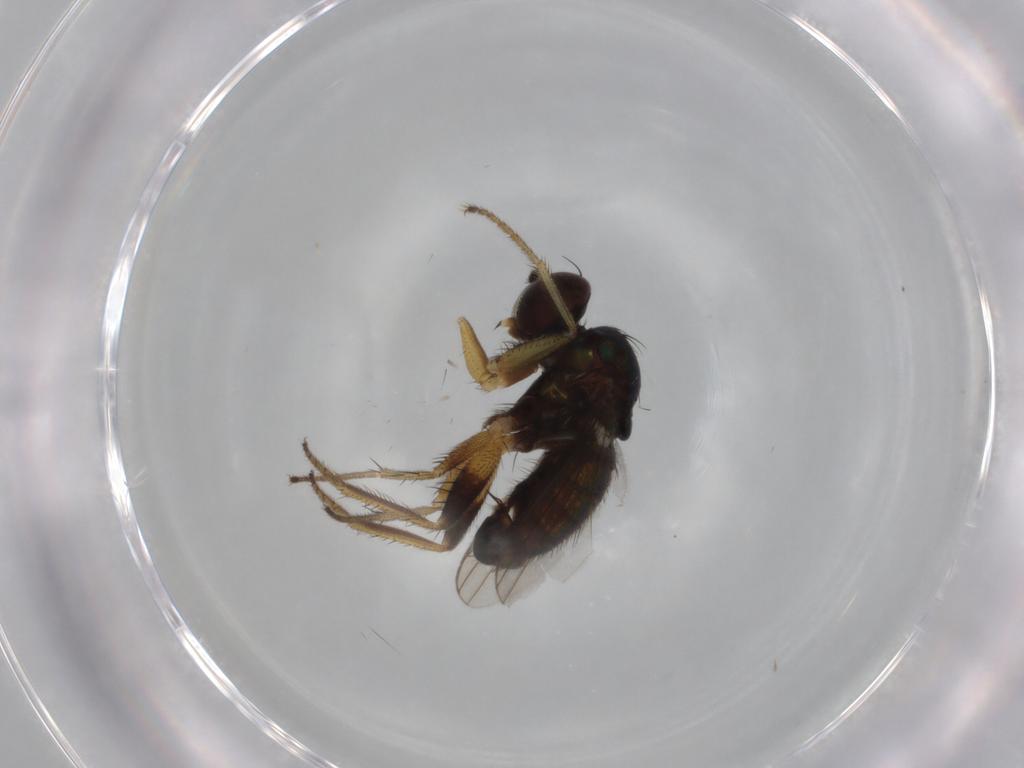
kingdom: Animalia
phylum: Arthropoda
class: Insecta
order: Diptera
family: Dolichopodidae
